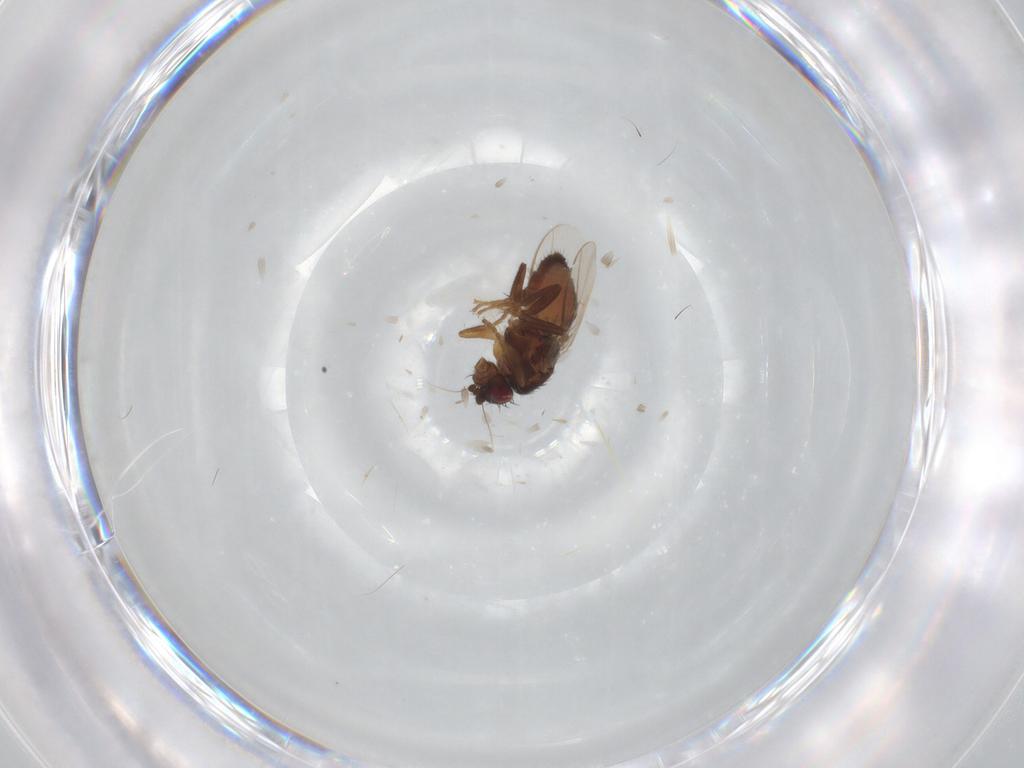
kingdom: Animalia
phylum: Arthropoda
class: Insecta
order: Diptera
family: Sphaeroceridae
